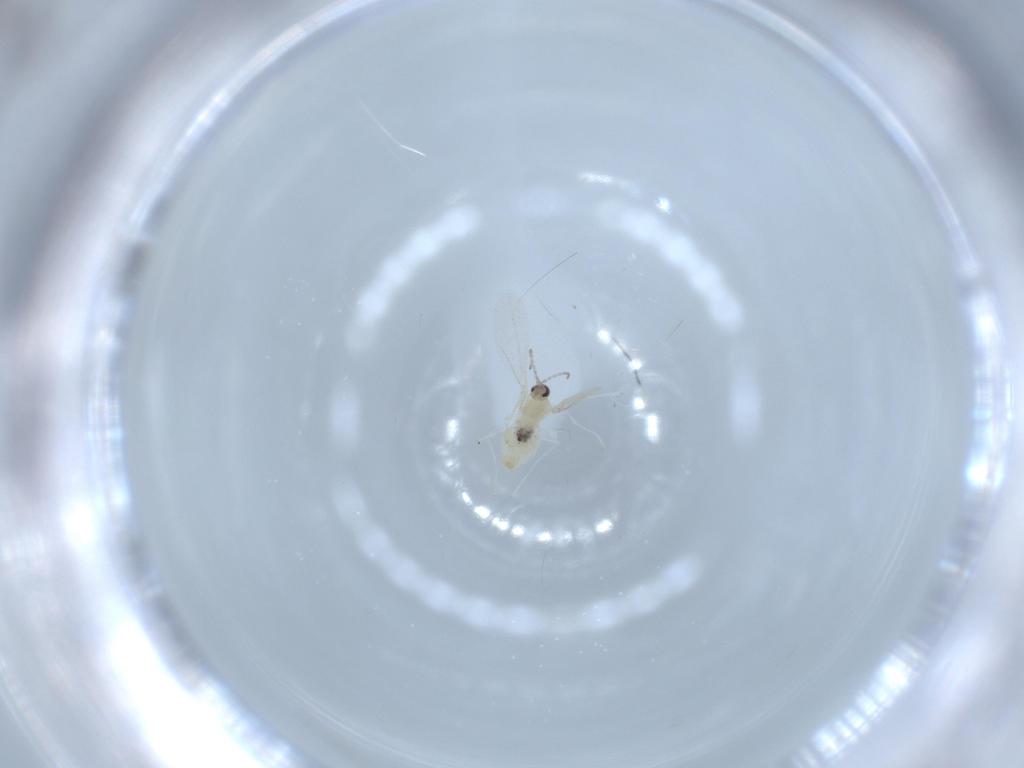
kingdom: Animalia
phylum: Arthropoda
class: Insecta
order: Diptera
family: Cecidomyiidae
